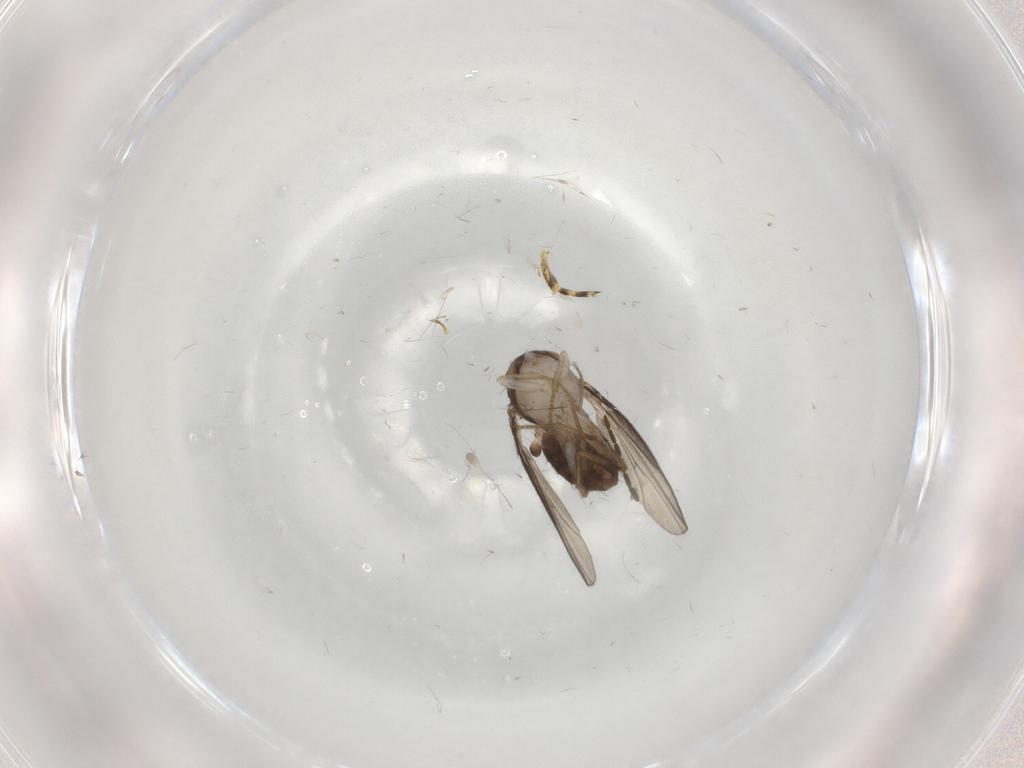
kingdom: Animalia
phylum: Arthropoda
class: Insecta
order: Diptera
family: Drosophilidae
